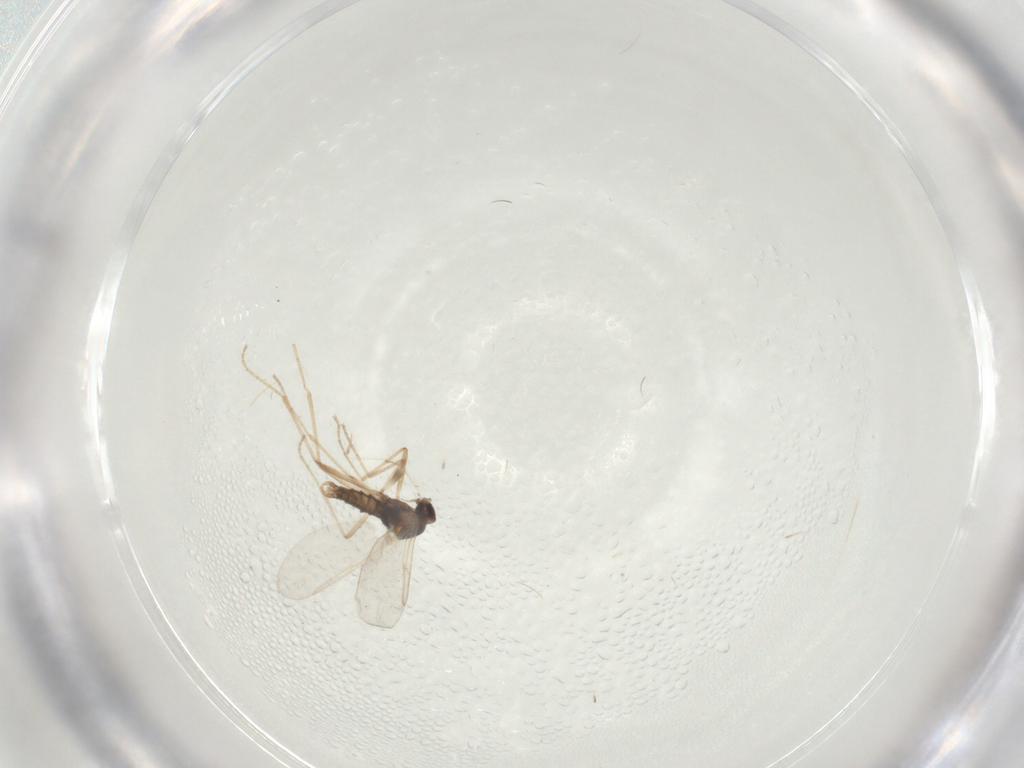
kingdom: Animalia
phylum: Arthropoda
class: Insecta
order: Diptera
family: Cecidomyiidae
